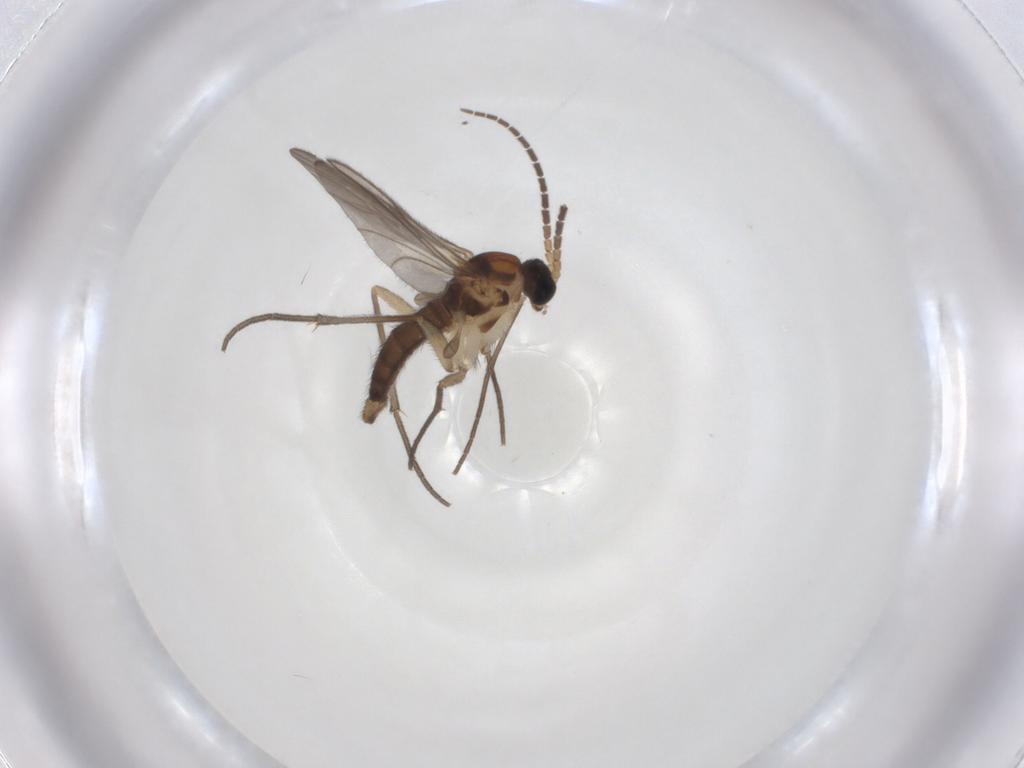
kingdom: Animalia
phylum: Arthropoda
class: Insecta
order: Diptera
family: Sciaridae
